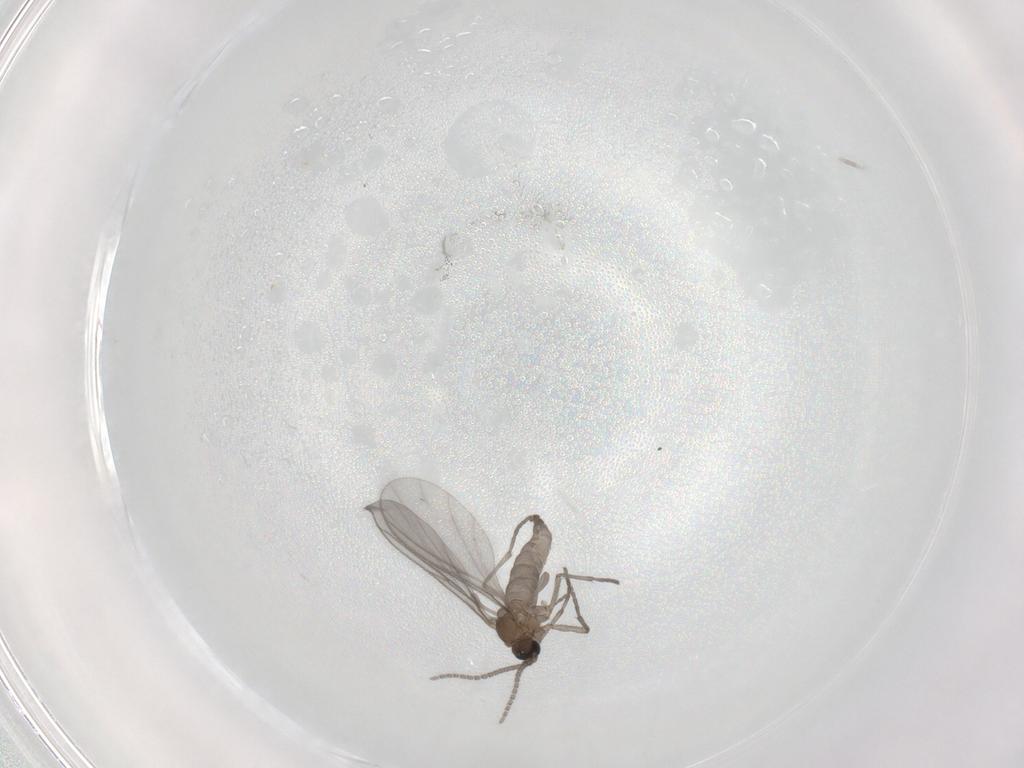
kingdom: Animalia
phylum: Arthropoda
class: Insecta
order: Diptera
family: Sciaridae
